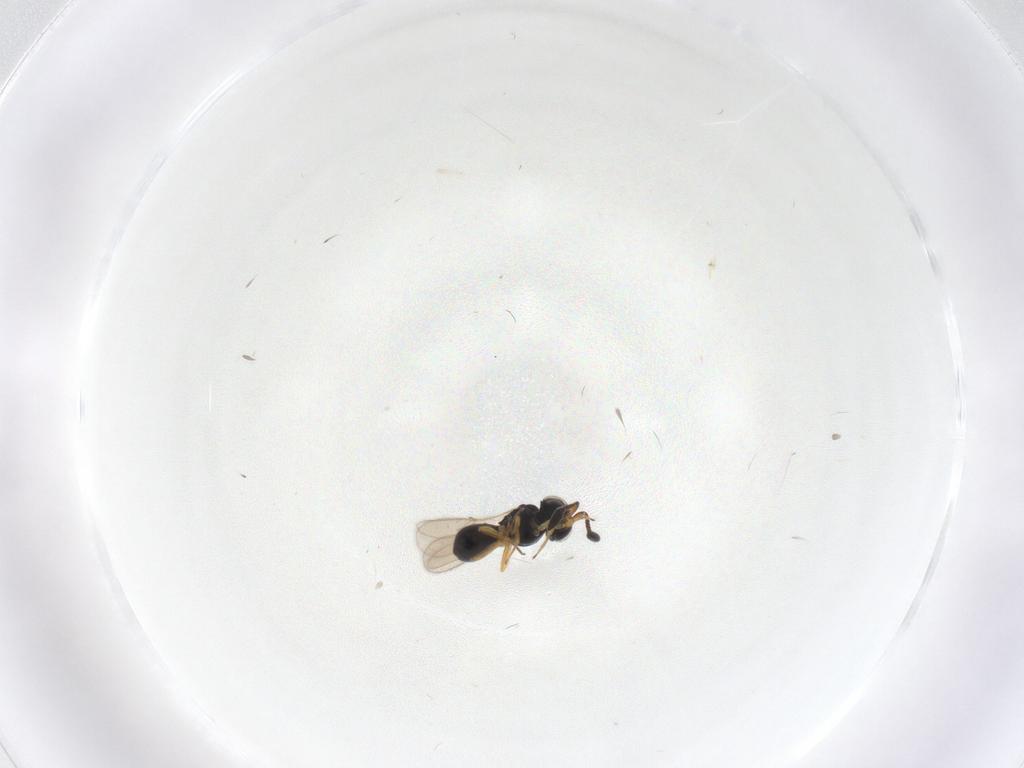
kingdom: Animalia
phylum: Arthropoda
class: Insecta
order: Hymenoptera
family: Scelionidae
